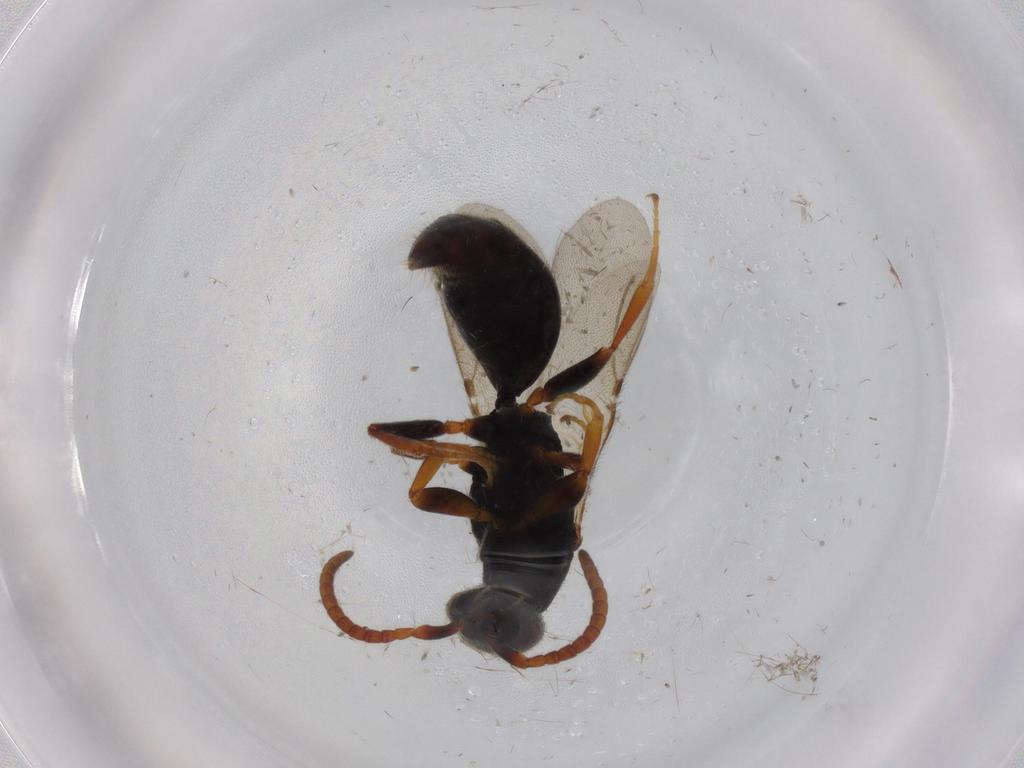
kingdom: Animalia
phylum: Arthropoda
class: Insecta
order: Hymenoptera
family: Bethylidae
